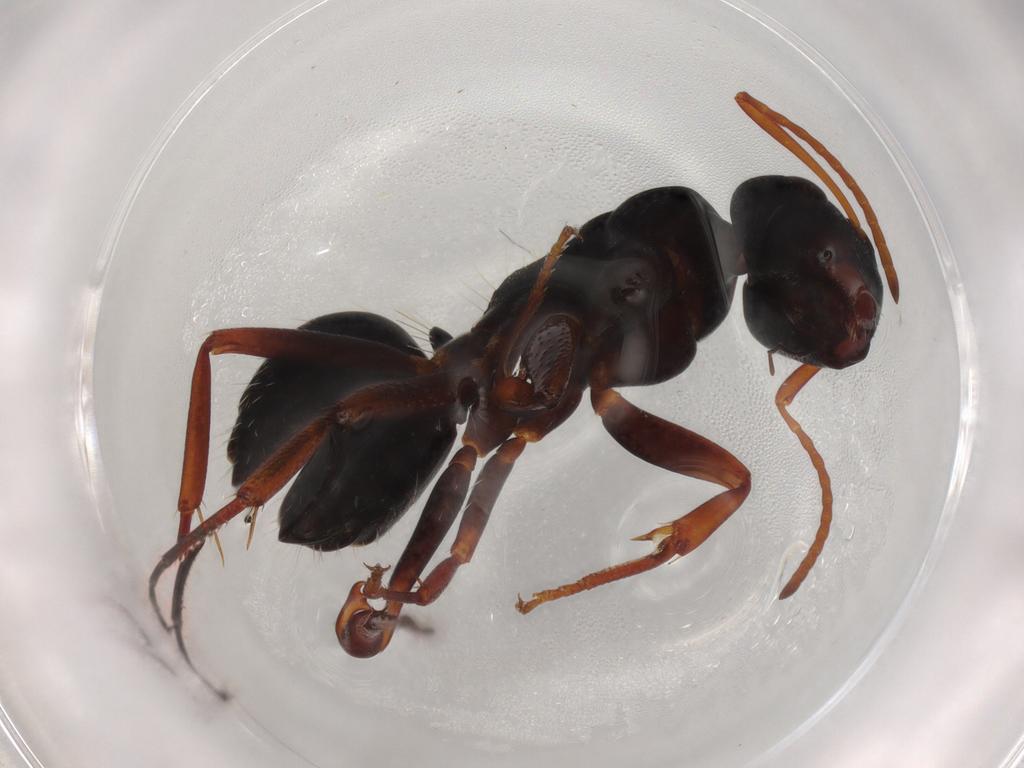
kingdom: Animalia
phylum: Arthropoda
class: Insecta
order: Hymenoptera
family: Formicidae
